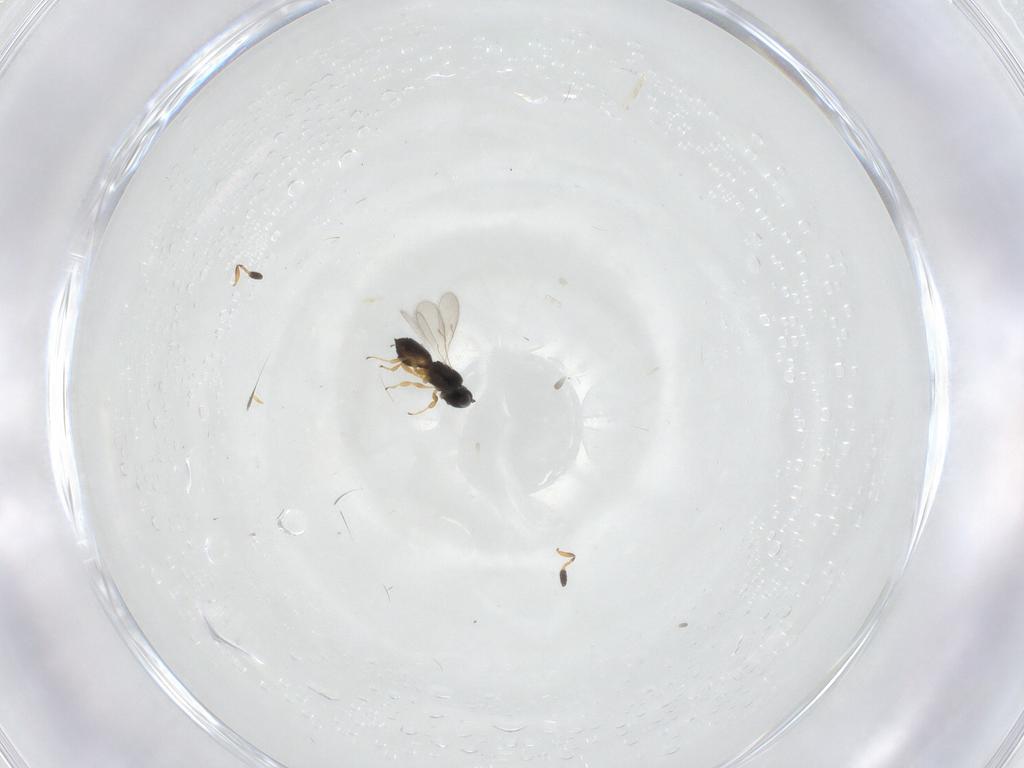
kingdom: Animalia
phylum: Arthropoda
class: Insecta
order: Hymenoptera
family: Scelionidae
